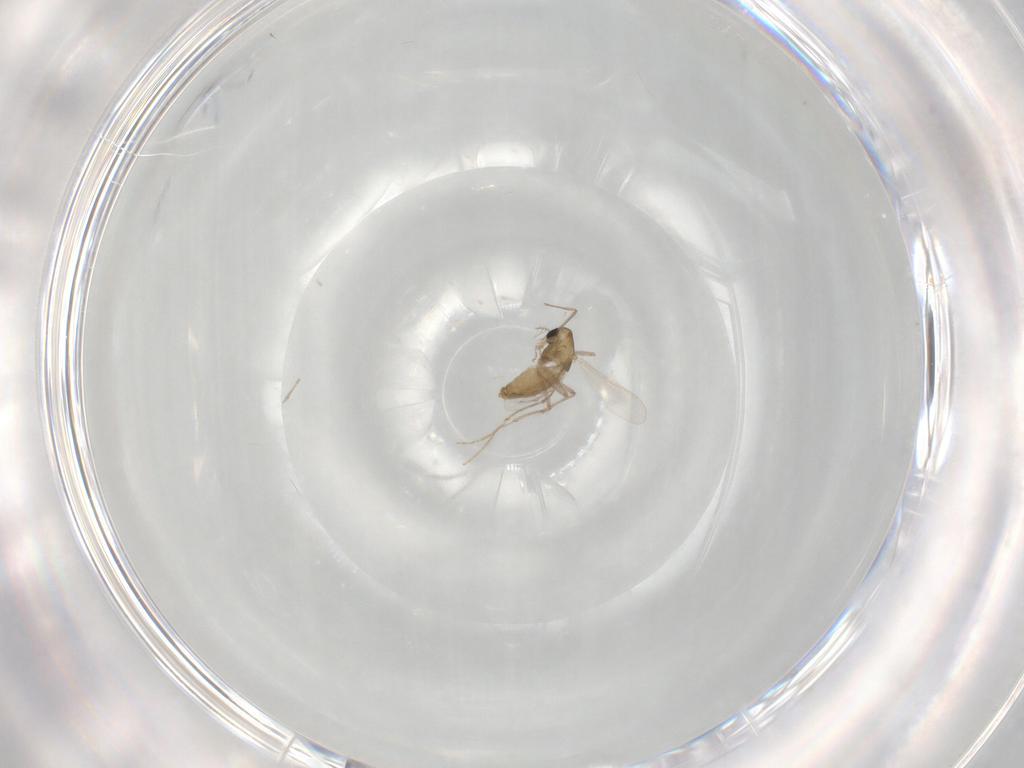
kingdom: Animalia
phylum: Arthropoda
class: Insecta
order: Diptera
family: Chironomidae
